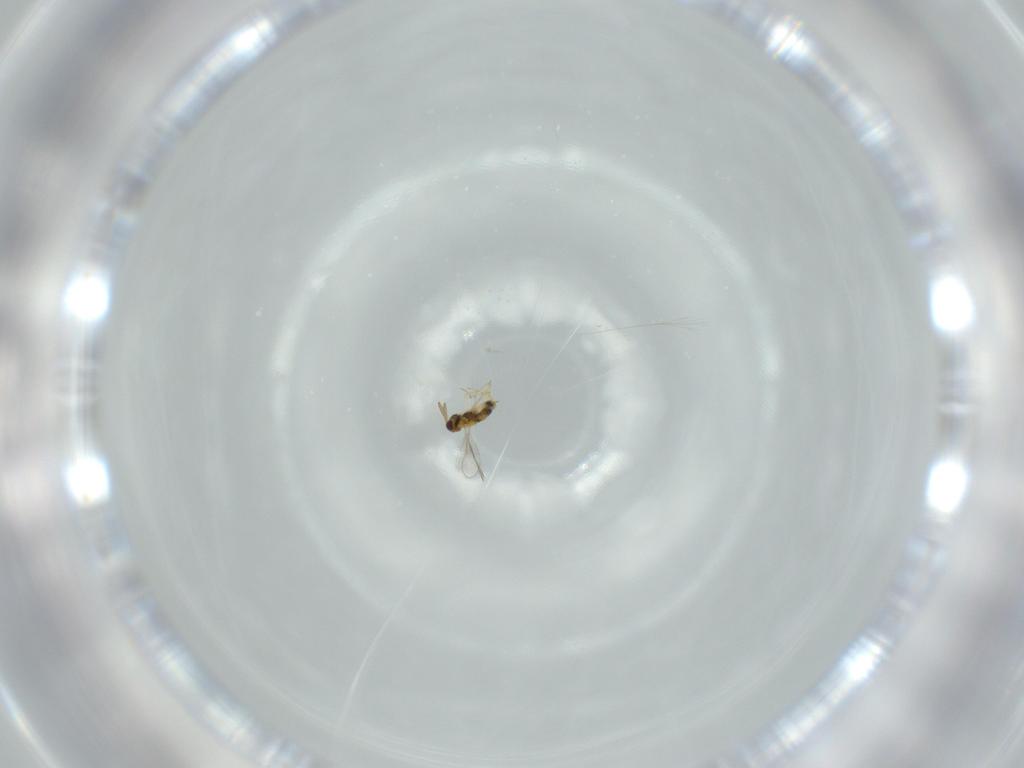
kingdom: Animalia
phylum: Arthropoda
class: Insecta
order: Hymenoptera
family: Aphelinidae
